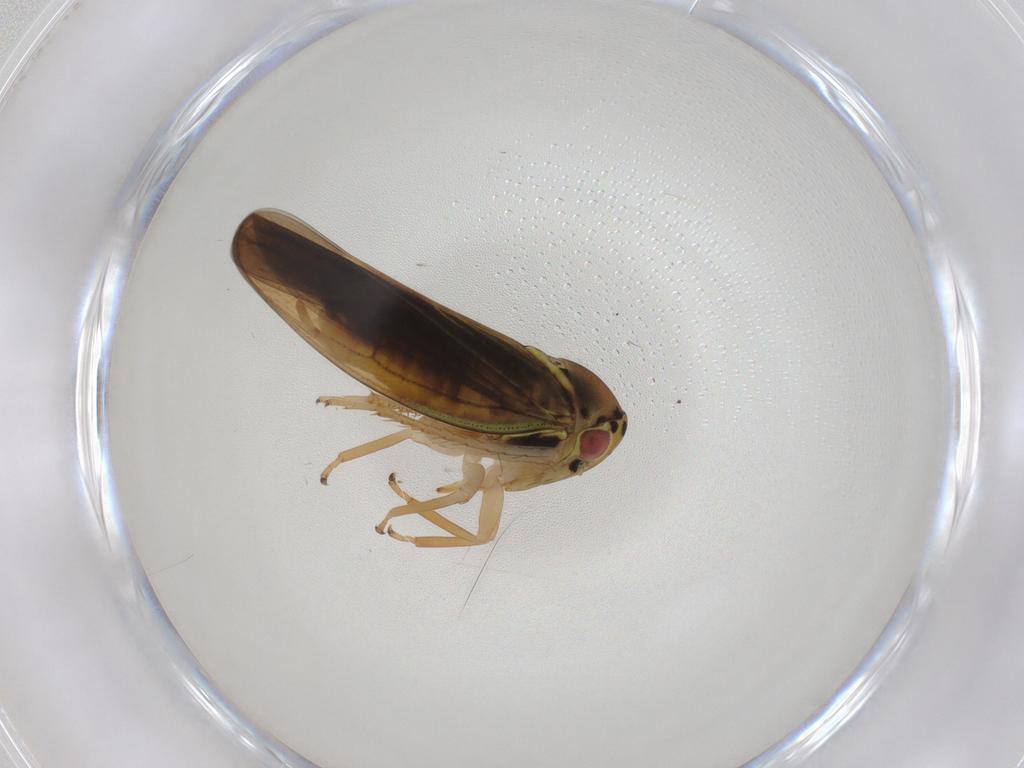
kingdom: Animalia
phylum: Arthropoda
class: Insecta
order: Hemiptera
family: Cicadellidae
